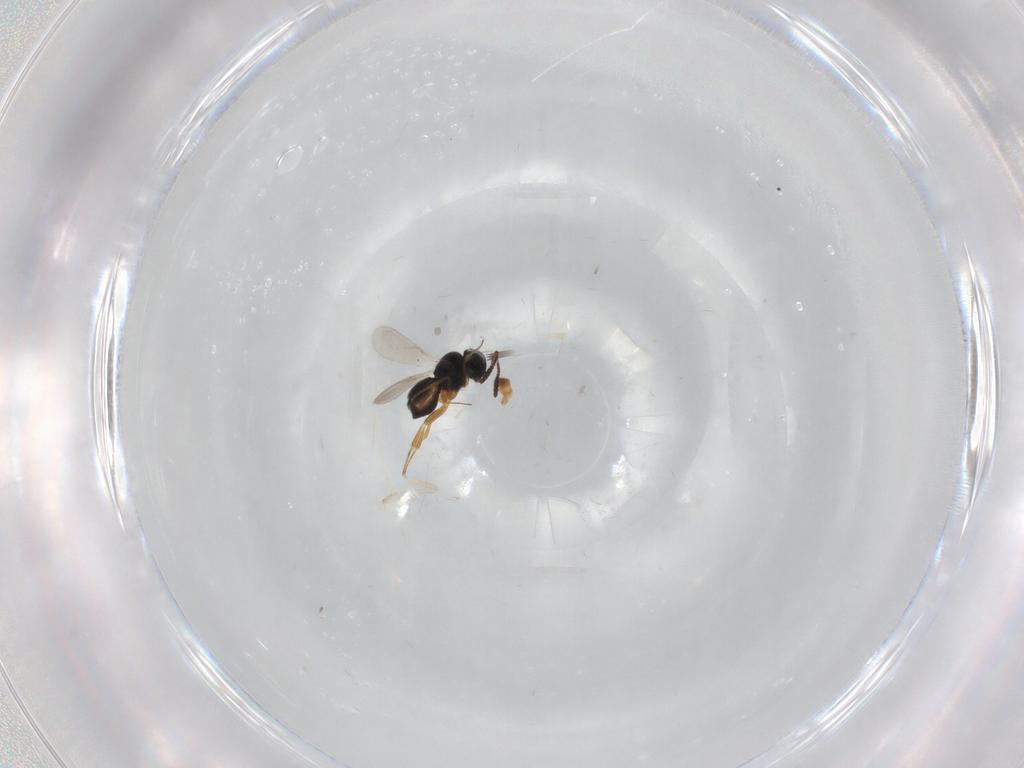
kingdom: Animalia
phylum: Arthropoda
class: Insecta
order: Hymenoptera
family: Scelionidae
